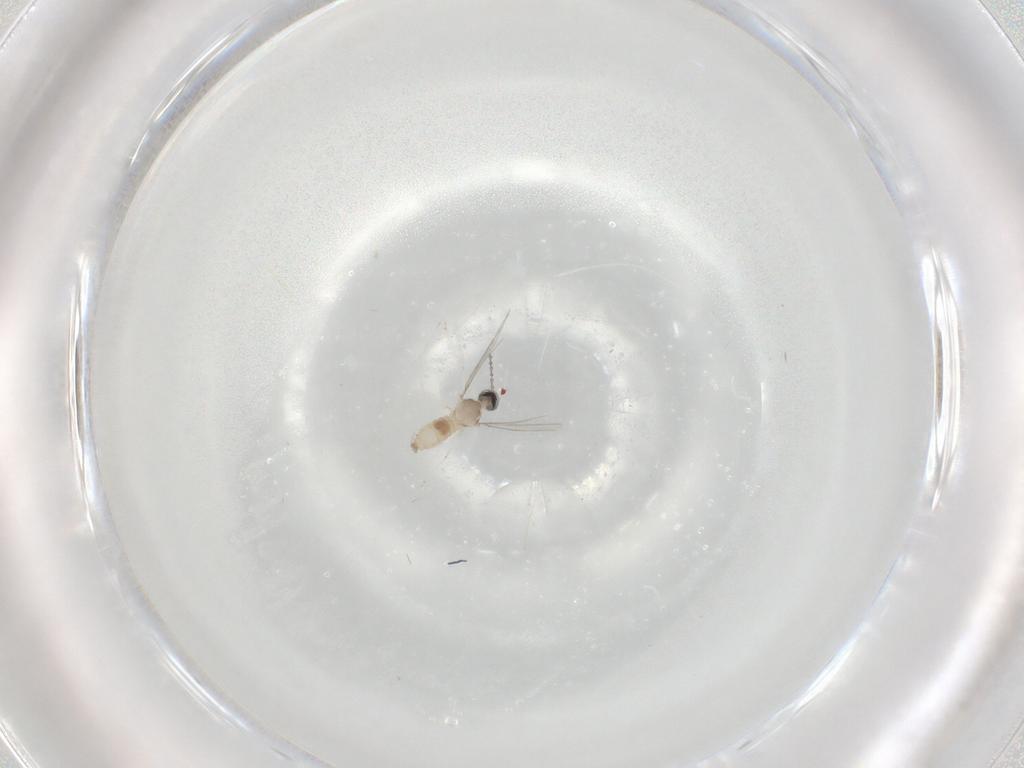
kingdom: Animalia
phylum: Arthropoda
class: Insecta
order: Diptera
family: Cecidomyiidae
